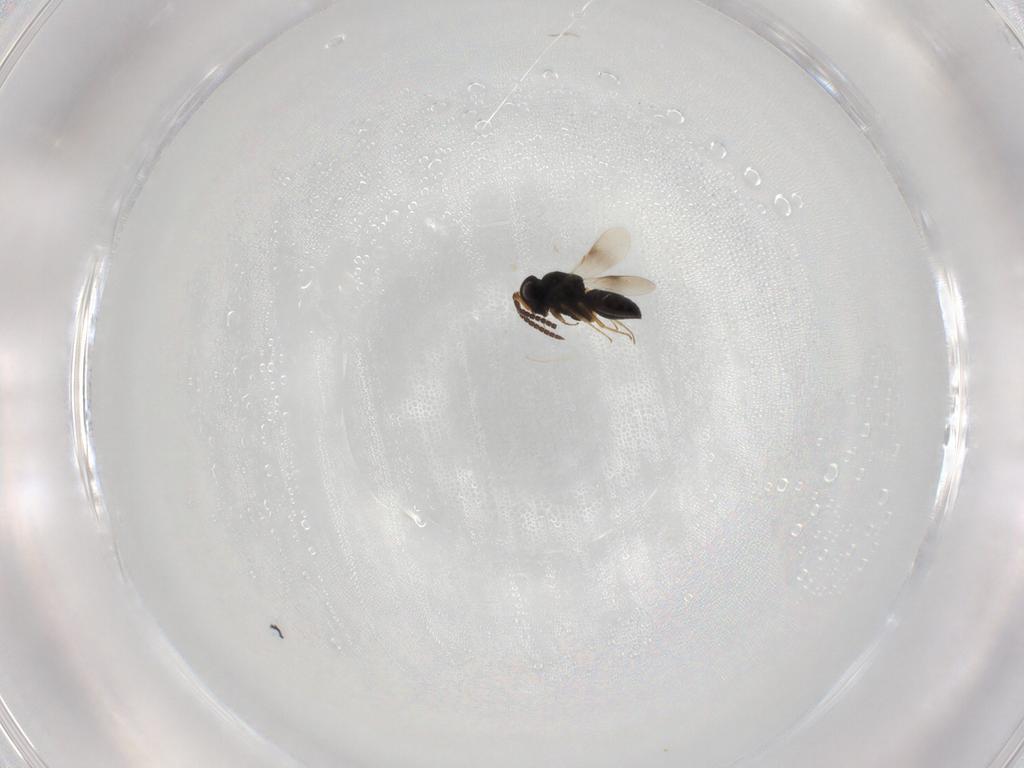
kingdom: Animalia
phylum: Arthropoda
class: Insecta
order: Hymenoptera
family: Scelionidae
